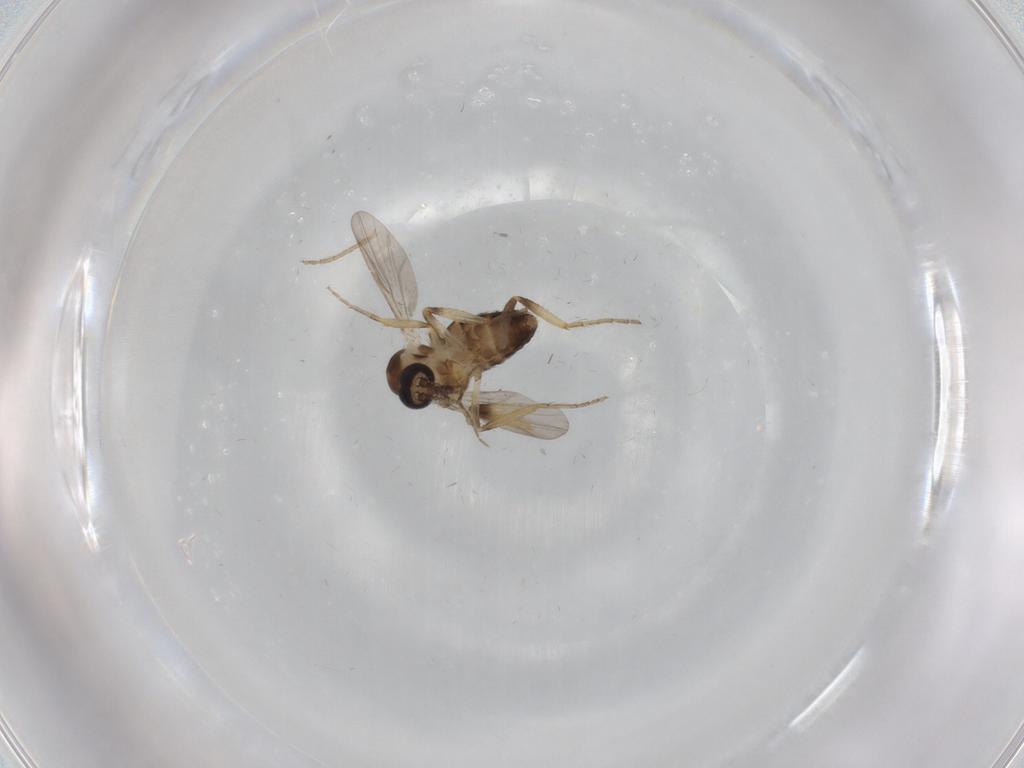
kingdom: Animalia
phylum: Arthropoda
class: Insecta
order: Diptera
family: Ceratopogonidae
